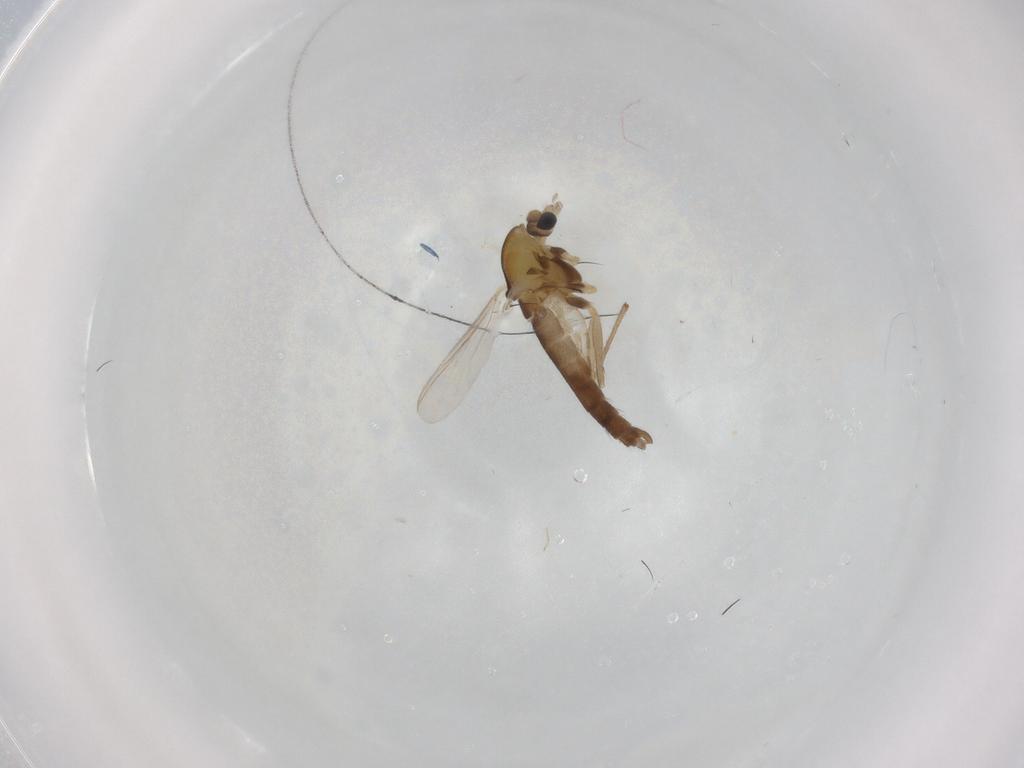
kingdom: Animalia
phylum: Arthropoda
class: Insecta
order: Diptera
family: Chironomidae
